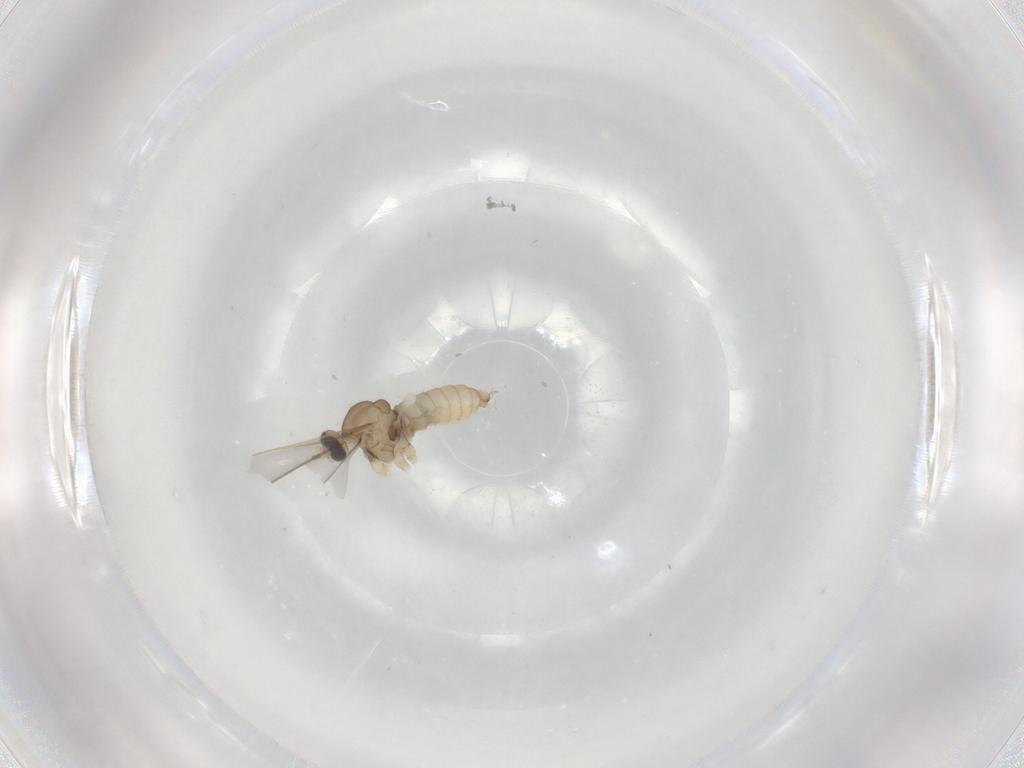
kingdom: Animalia
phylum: Arthropoda
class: Insecta
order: Diptera
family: Cecidomyiidae
